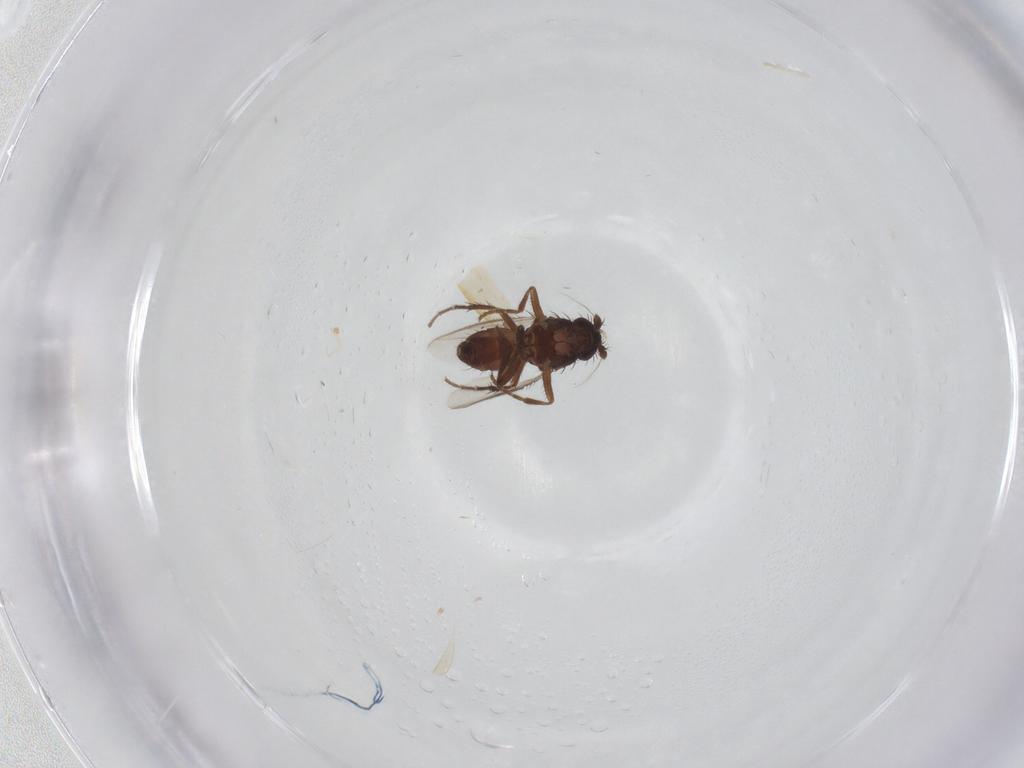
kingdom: Animalia
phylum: Arthropoda
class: Insecta
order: Diptera
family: Sphaeroceridae
